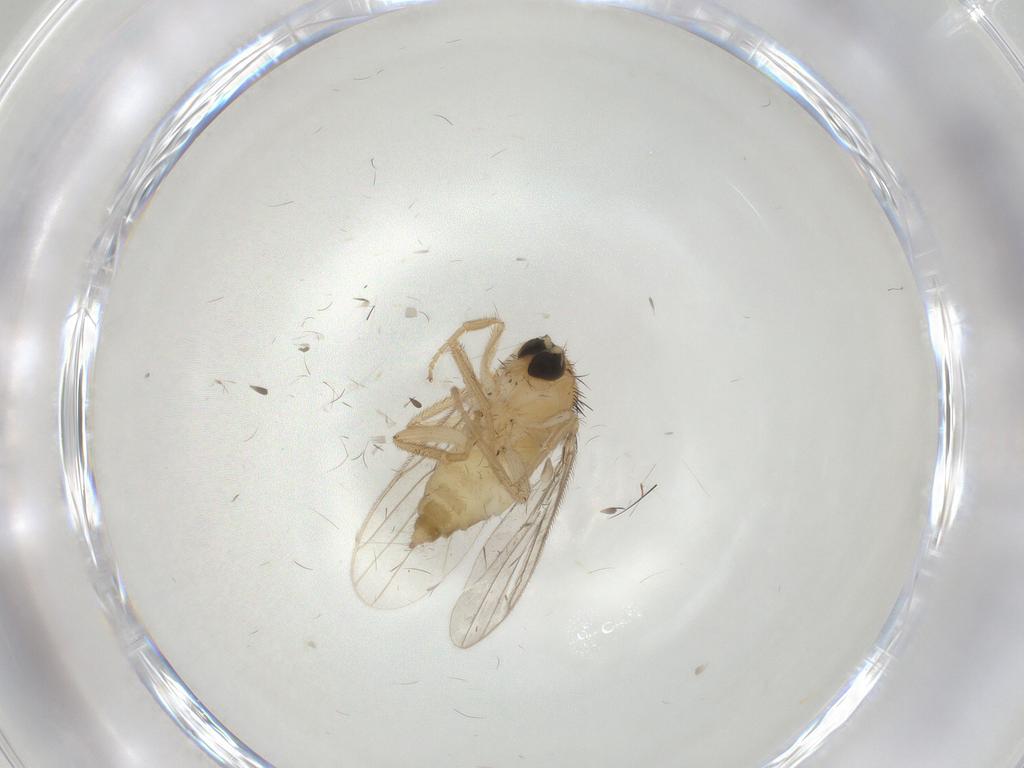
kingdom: Animalia
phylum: Arthropoda
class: Insecta
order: Diptera
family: Hybotidae
